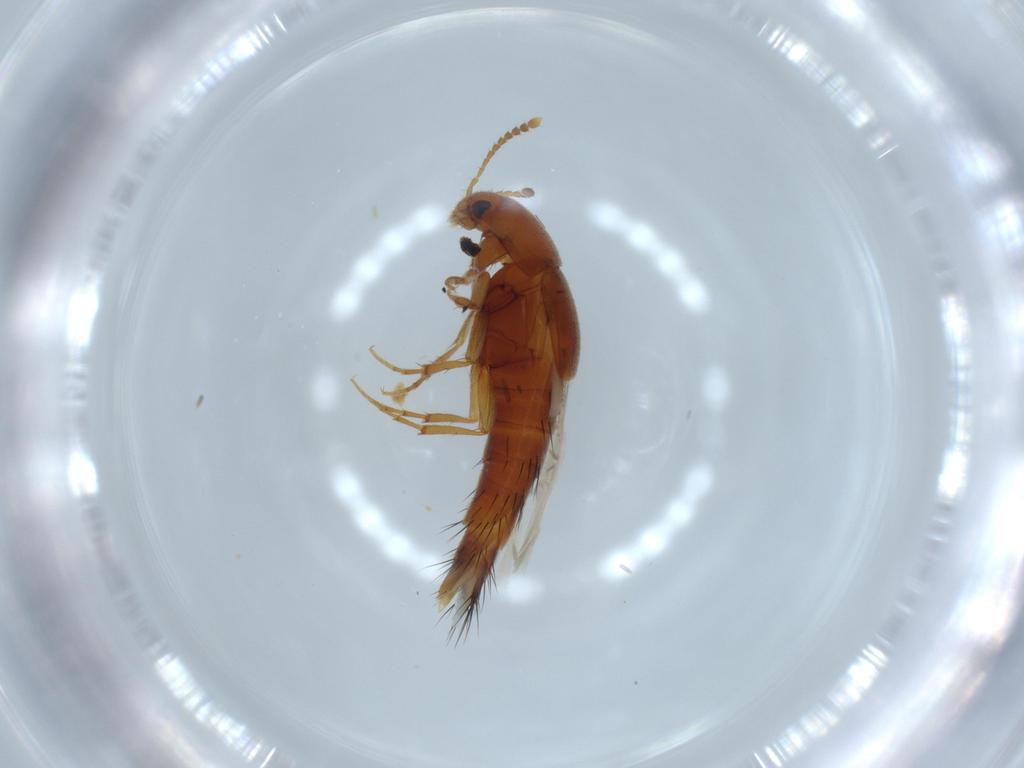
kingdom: Animalia
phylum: Arthropoda
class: Insecta
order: Coleoptera
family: Staphylinidae
